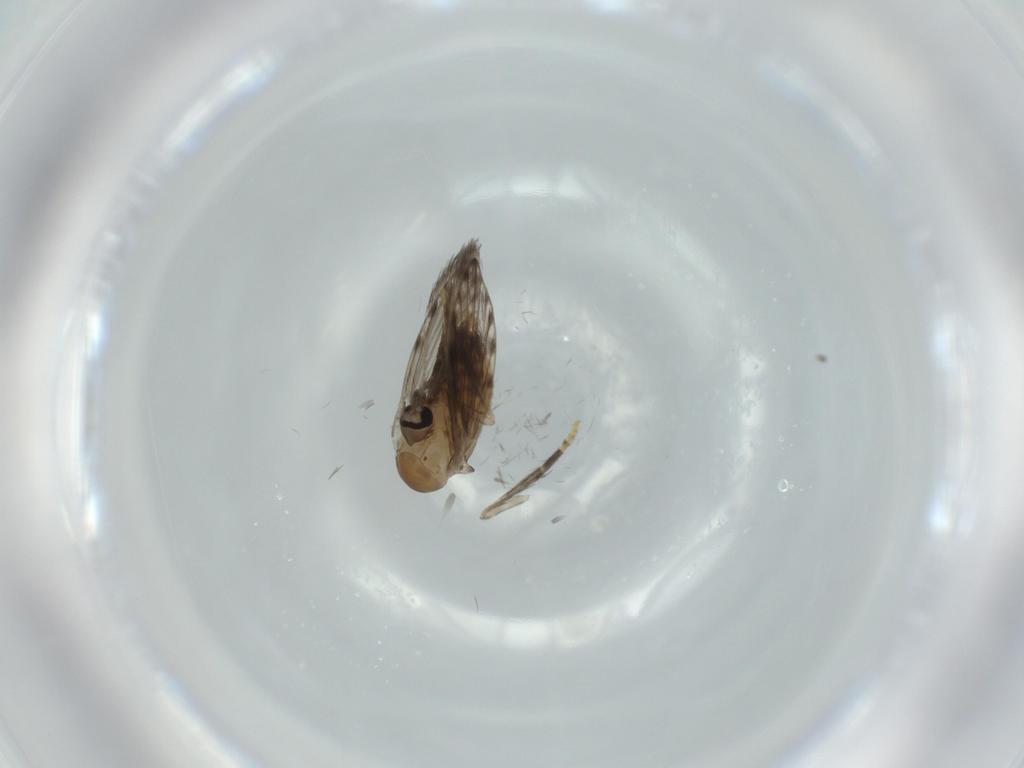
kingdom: Animalia
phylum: Arthropoda
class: Insecta
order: Diptera
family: Psychodidae
